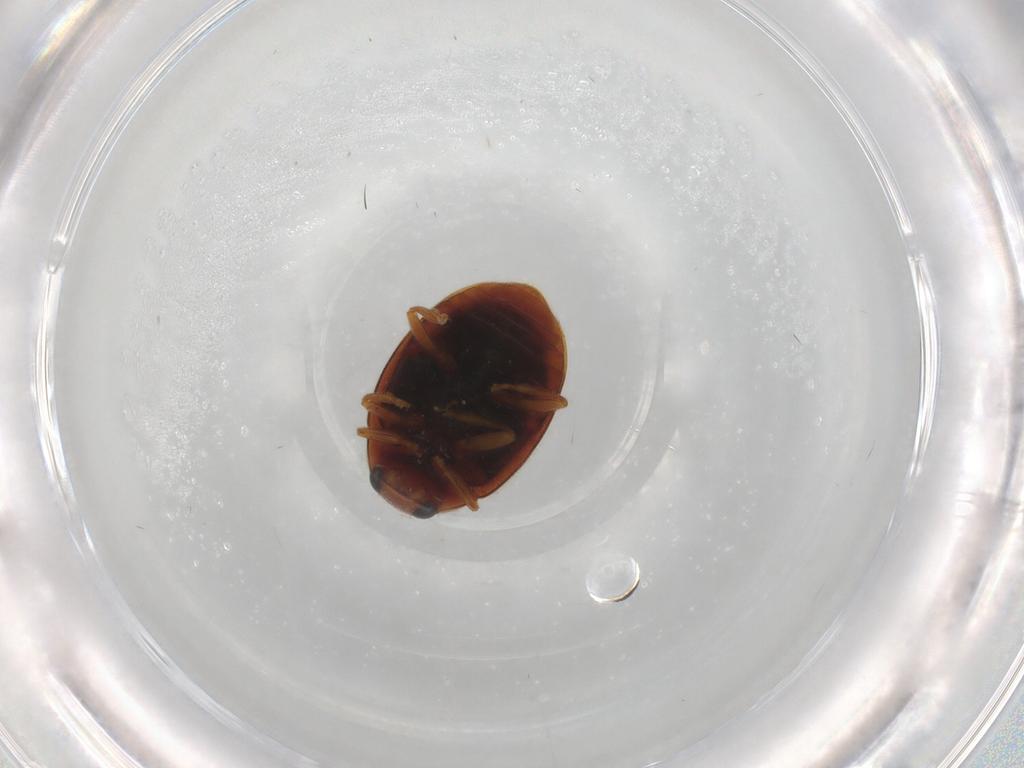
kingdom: Animalia
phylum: Arthropoda
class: Insecta
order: Coleoptera
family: Coccinellidae
